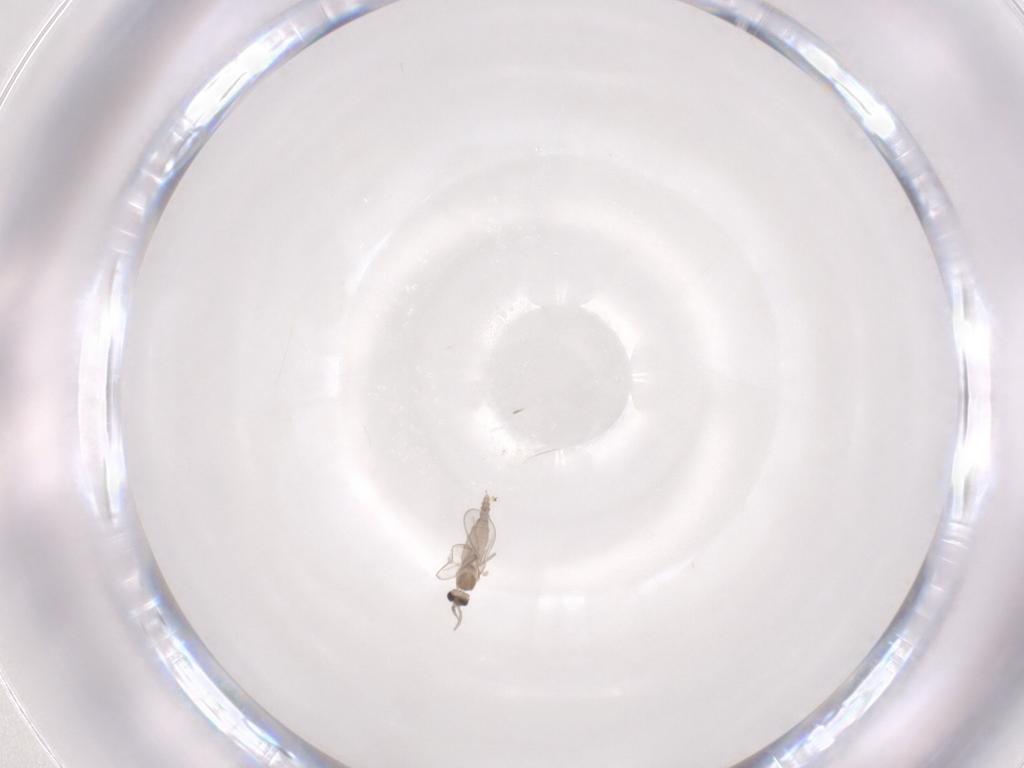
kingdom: Animalia
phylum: Arthropoda
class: Insecta
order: Diptera
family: Cecidomyiidae
